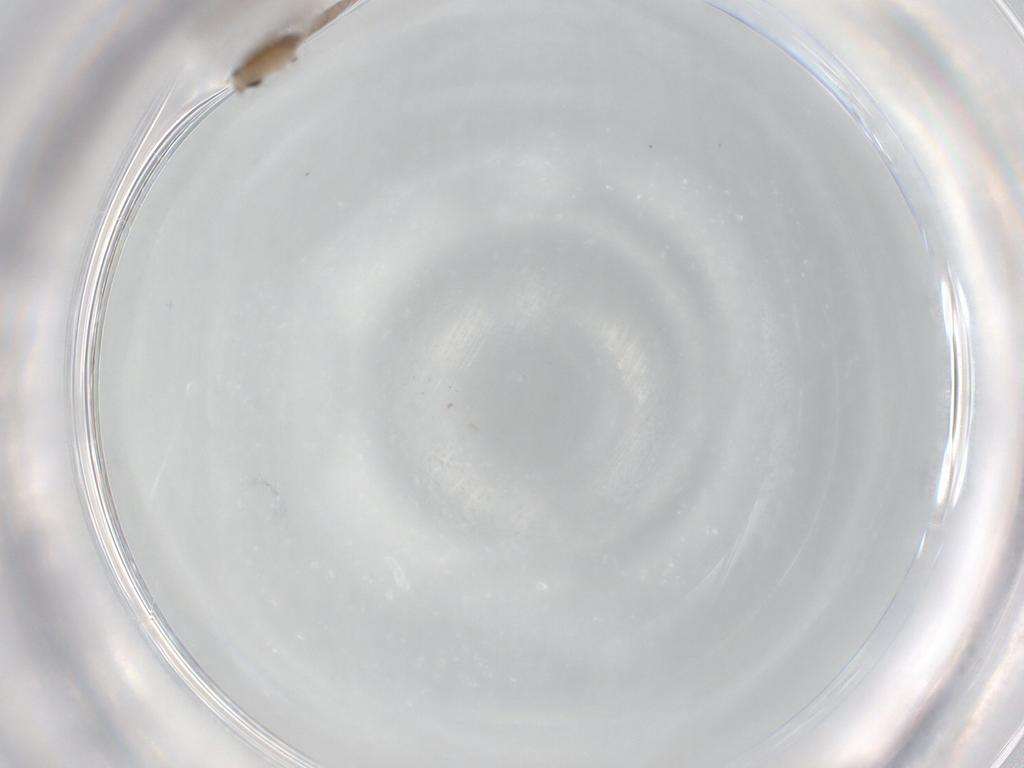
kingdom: Animalia
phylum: Arthropoda
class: Insecta
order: Diptera
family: Psychodidae
